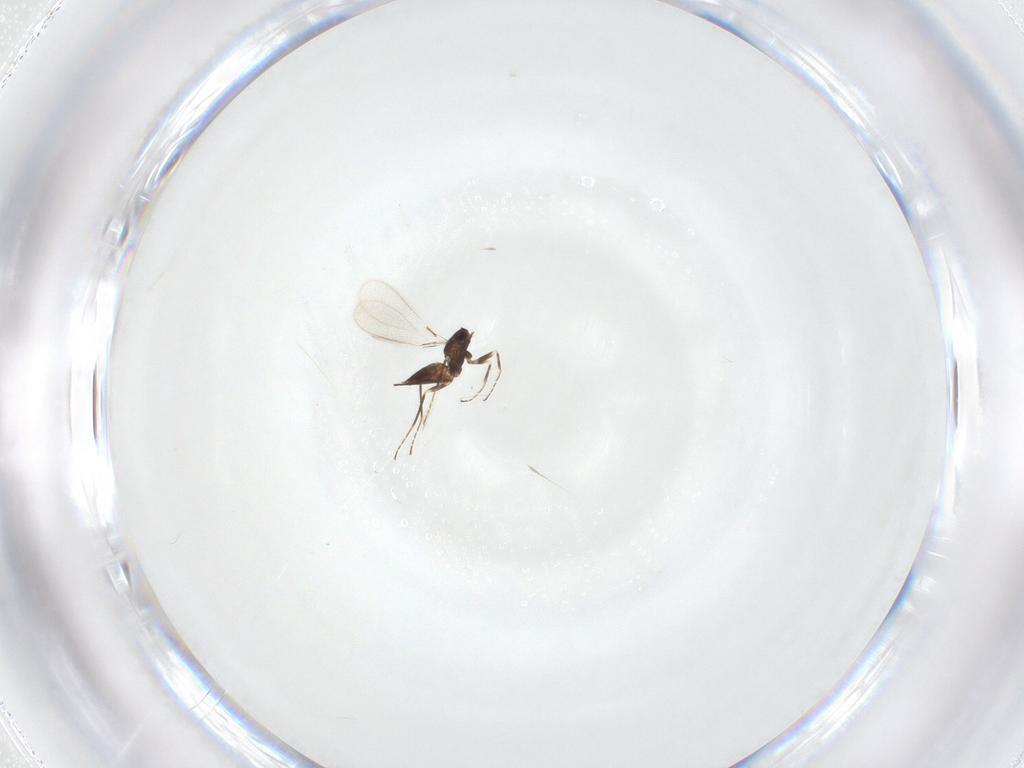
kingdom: Animalia
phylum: Arthropoda
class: Insecta
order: Hymenoptera
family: Mymaridae
